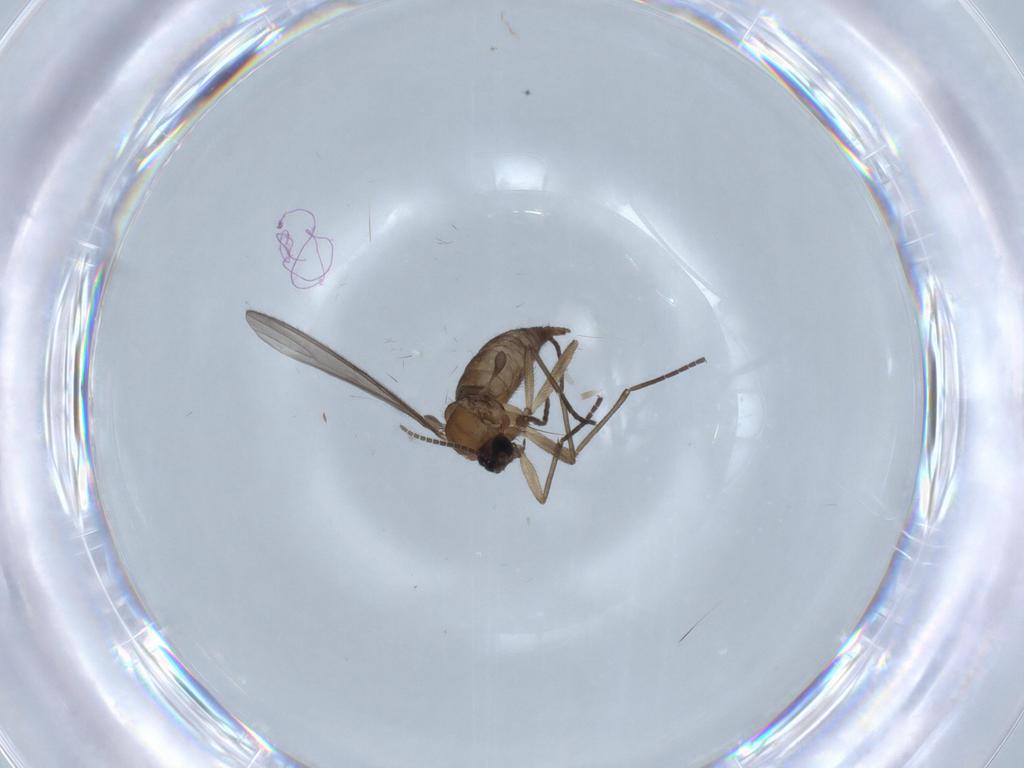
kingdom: Animalia
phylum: Arthropoda
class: Insecta
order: Diptera
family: Sciaridae
